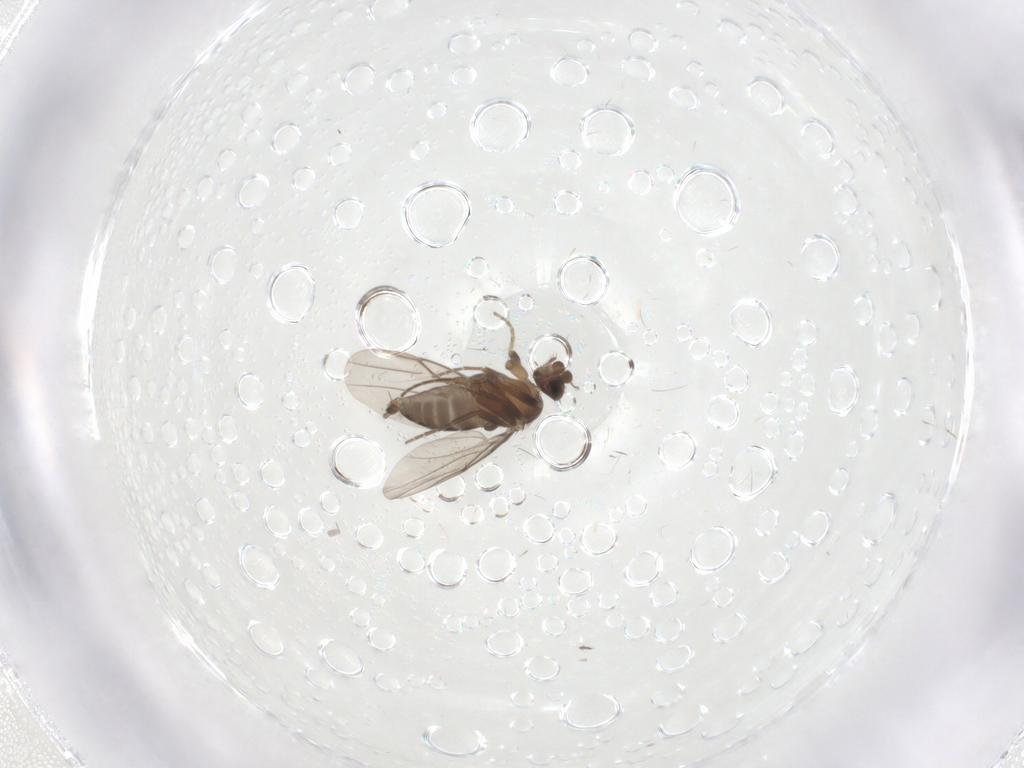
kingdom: Animalia
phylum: Arthropoda
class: Insecta
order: Diptera
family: Phoridae
